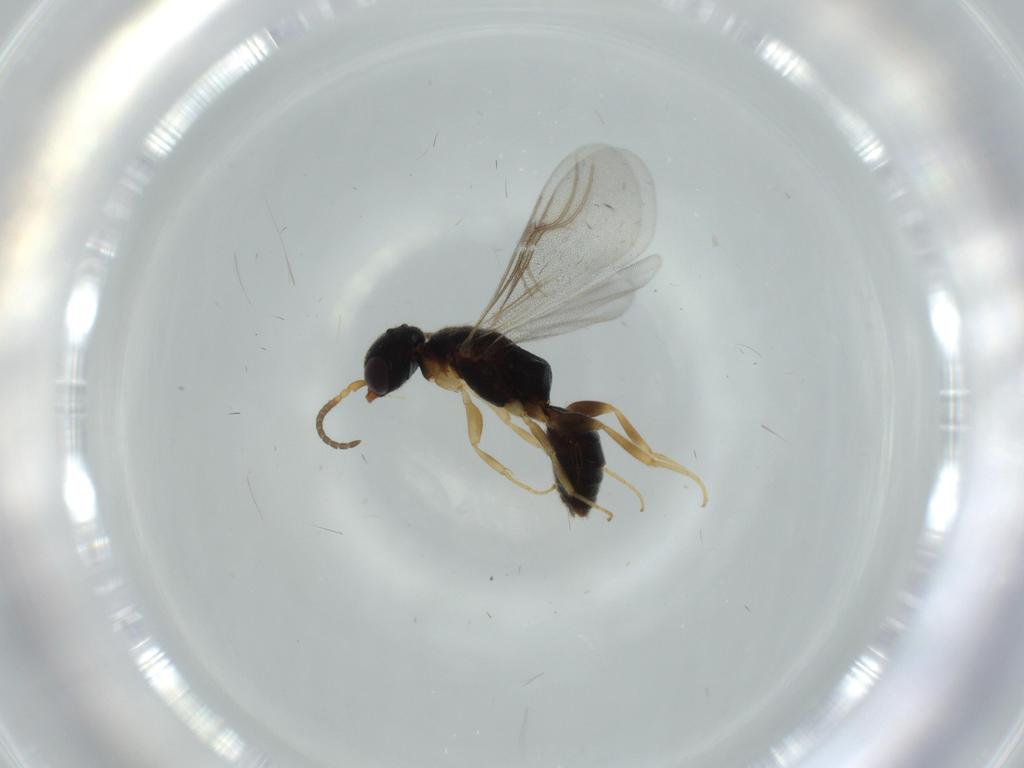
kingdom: Animalia
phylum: Arthropoda
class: Insecta
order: Hymenoptera
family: Bethylidae
